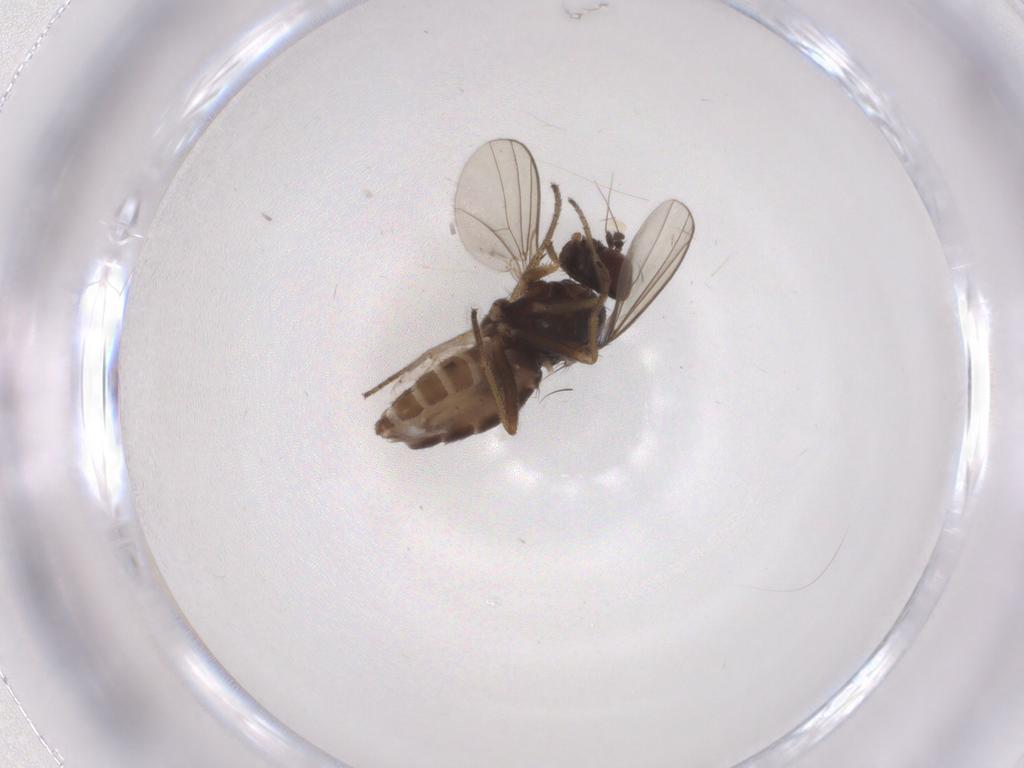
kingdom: Animalia
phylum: Arthropoda
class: Insecta
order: Diptera
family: Dolichopodidae
